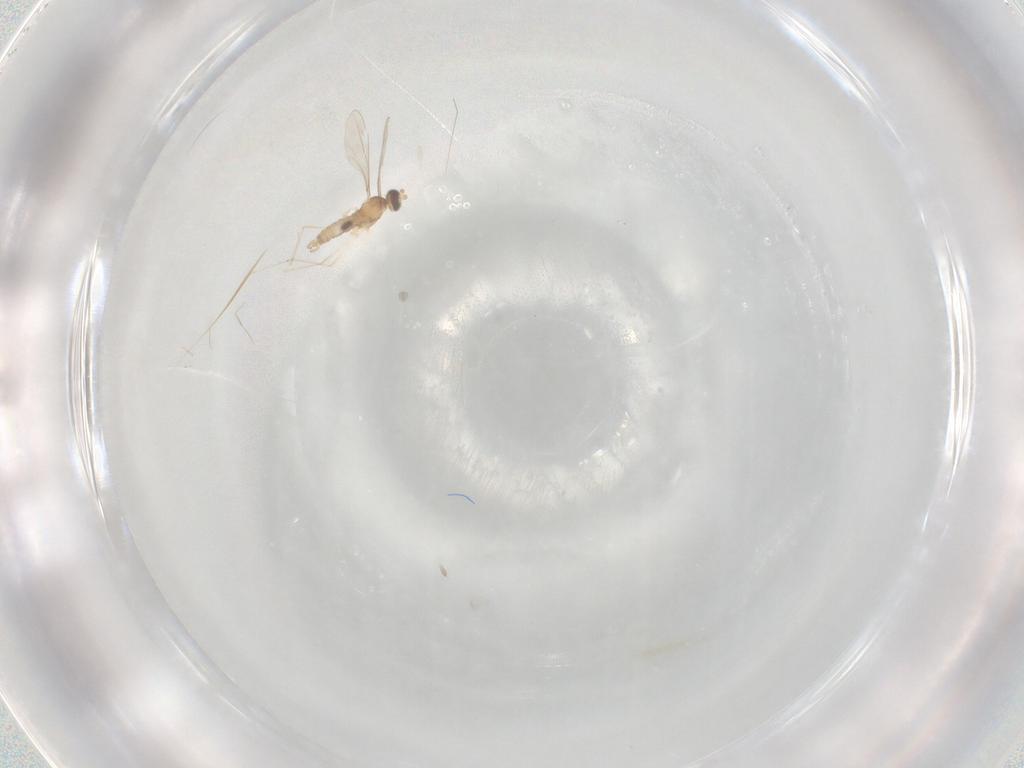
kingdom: Animalia
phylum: Arthropoda
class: Insecta
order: Diptera
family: Cecidomyiidae
